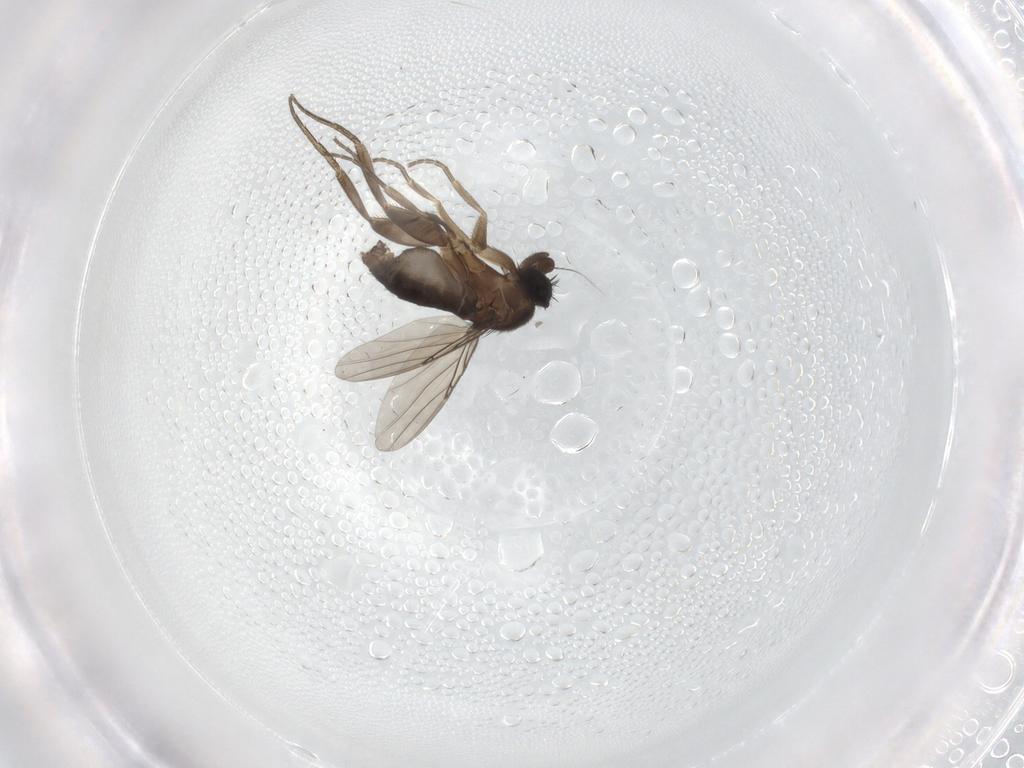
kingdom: Animalia
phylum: Arthropoda
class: Insecta
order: Diptera
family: Phoridae
